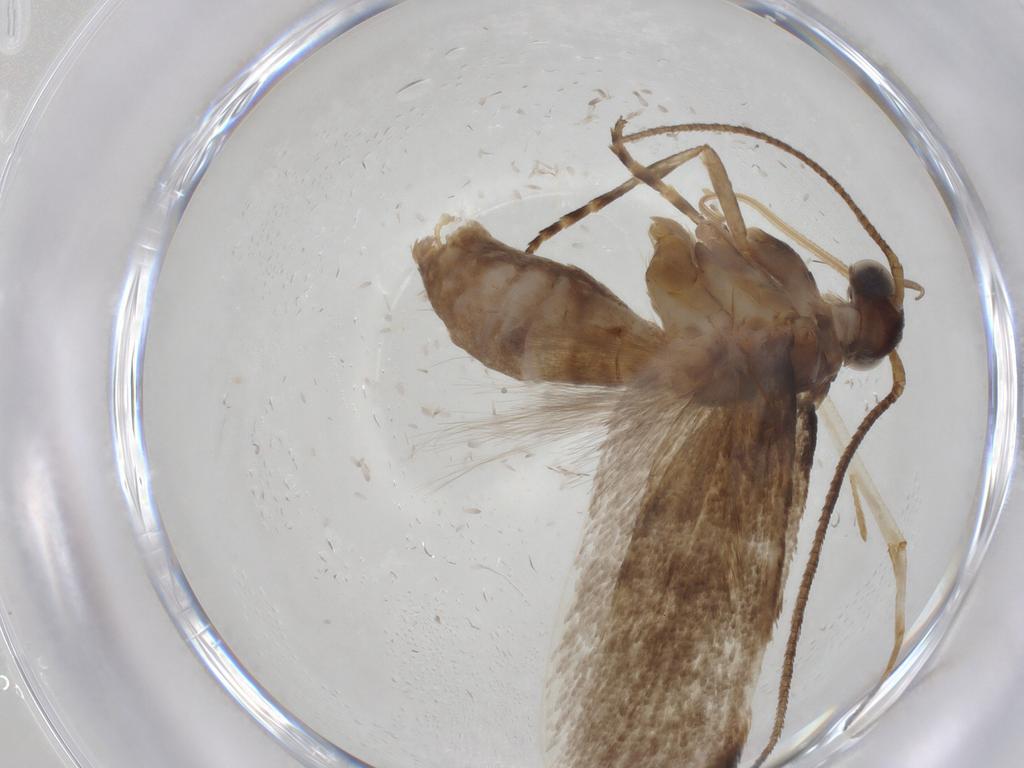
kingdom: Animalia
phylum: Arthropoda
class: Insecta
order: Lepidoptera
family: Gelechiidae
